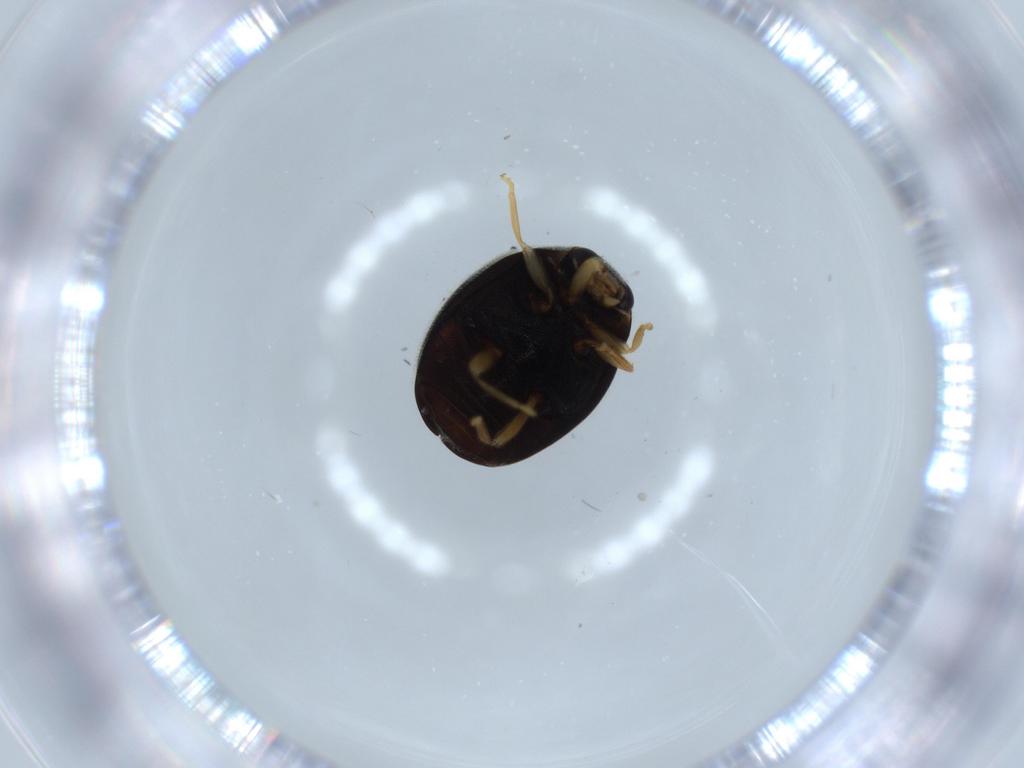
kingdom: Animalia
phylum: Arthropoda
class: Insecta
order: Coleoptera
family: Coccinellidae
